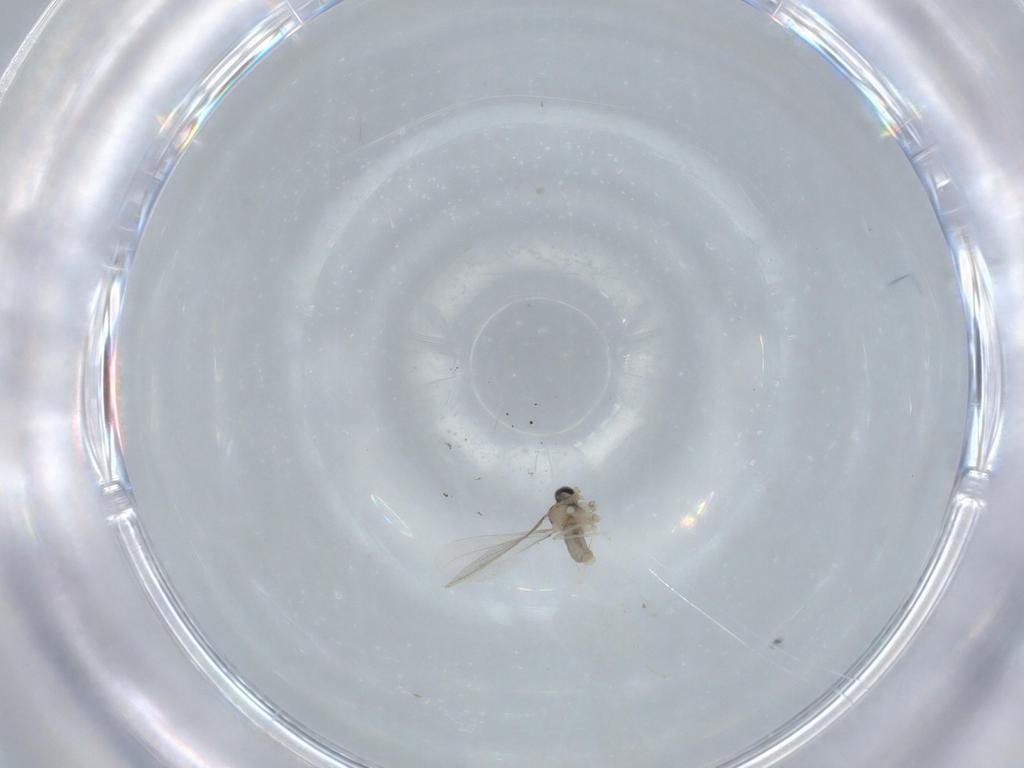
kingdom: Animalia
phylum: Arthropoda
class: Insecta
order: Diptera
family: Cecidomyiidae
